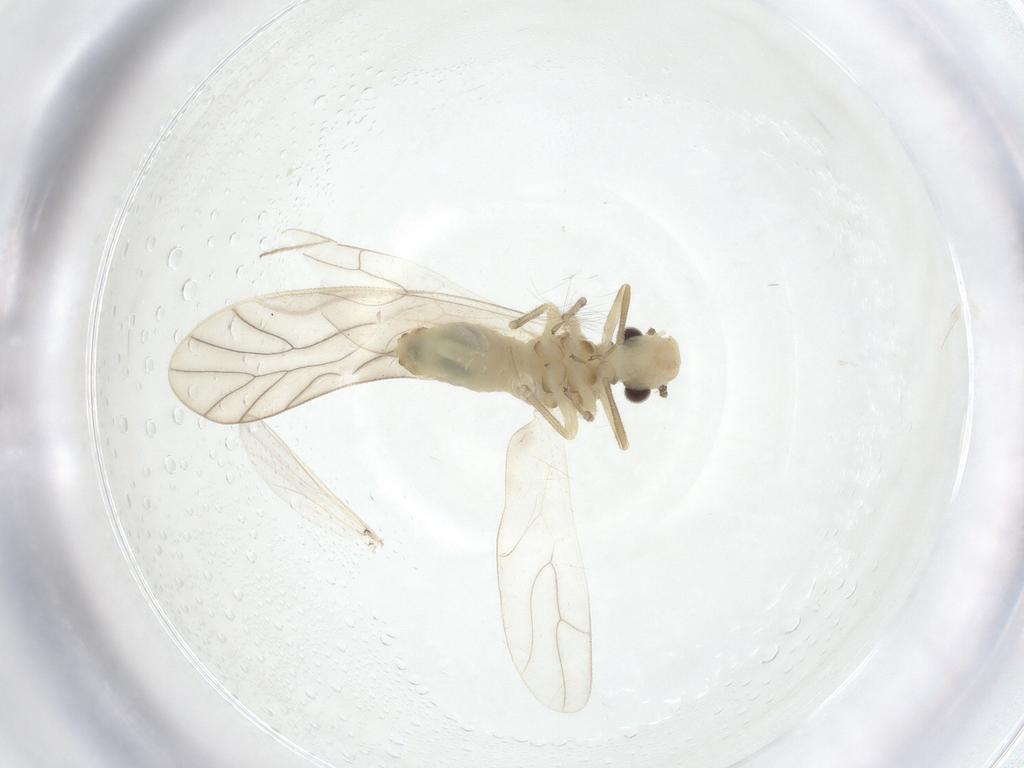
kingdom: Animalia
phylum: Arthropoda
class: Insecta
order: Psocodea
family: Caeciliusidae
